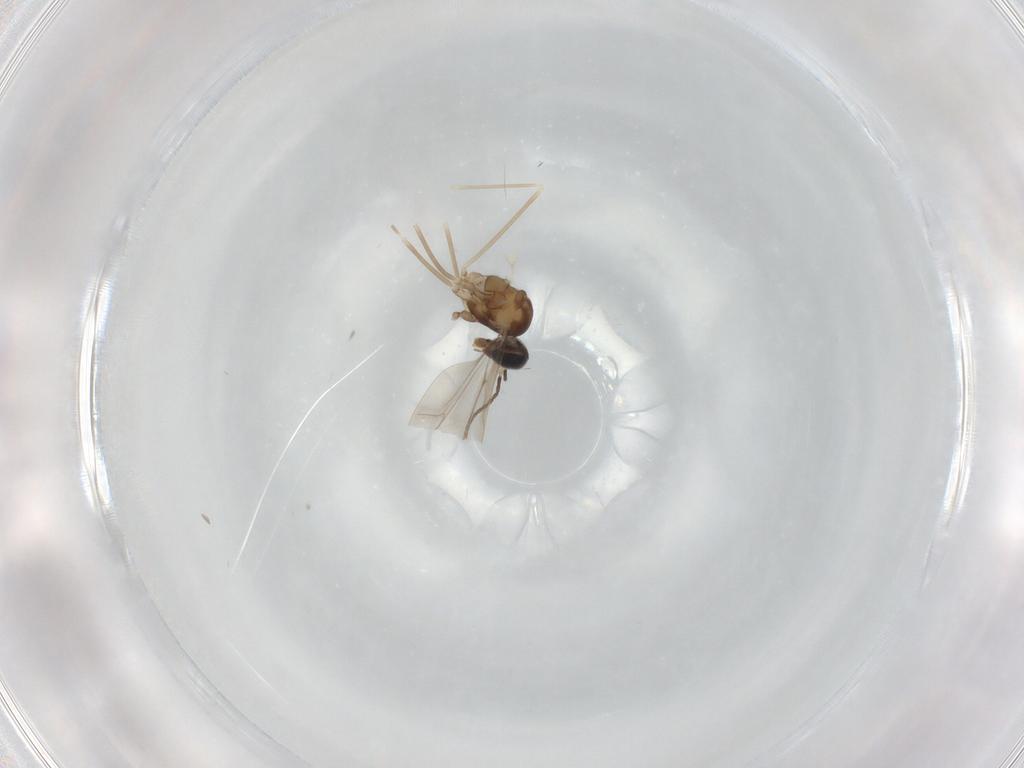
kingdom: Animalia
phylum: Arthropoda
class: Insecta
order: Diptera
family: Cecidomyiidae
